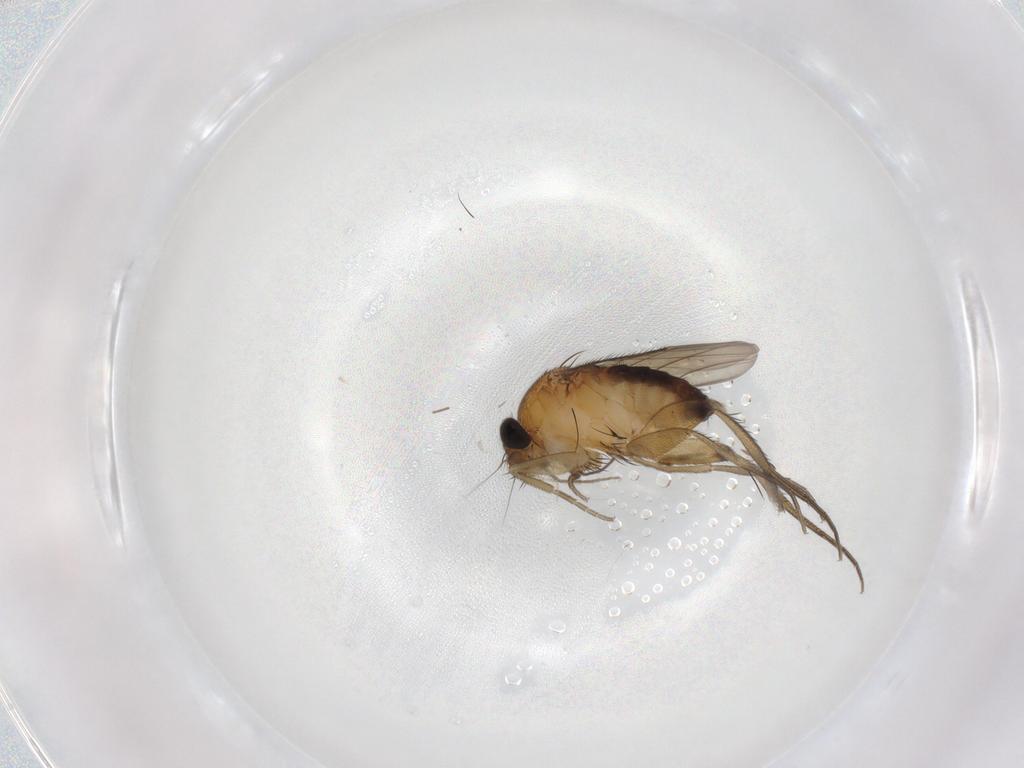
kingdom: Animalia
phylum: Arthropoda
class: Insecta
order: Diptera
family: Phoridae
